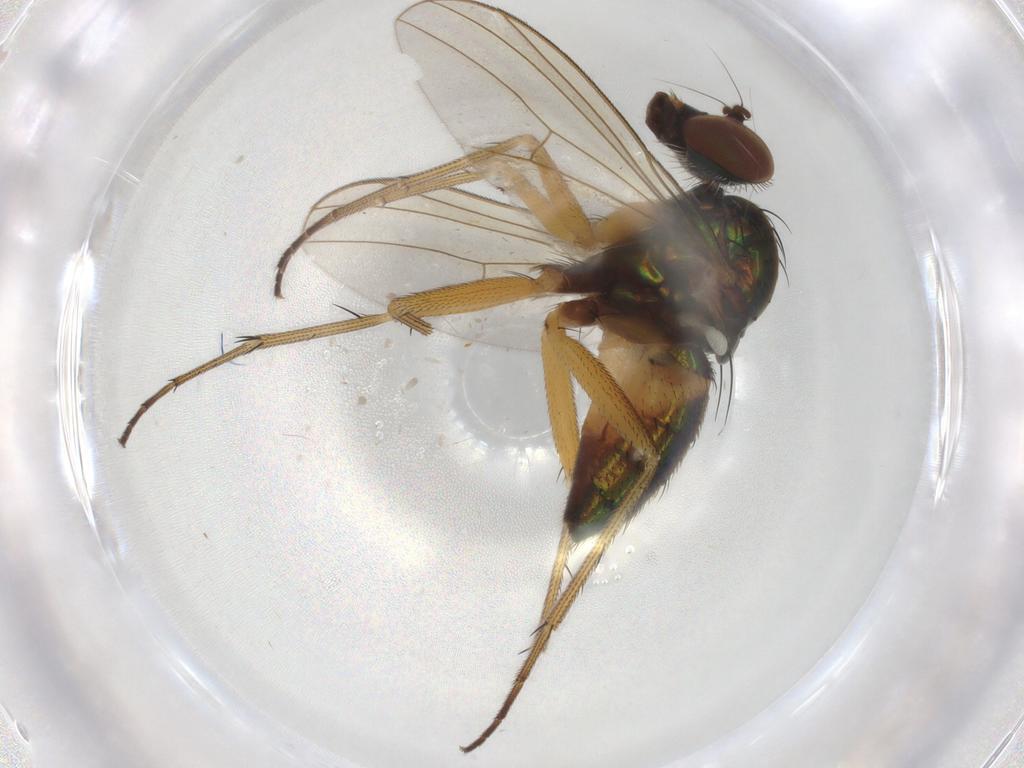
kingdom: Animalia
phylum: Arthropoda
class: Insecta
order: Diptera
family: Dolichopodidae
